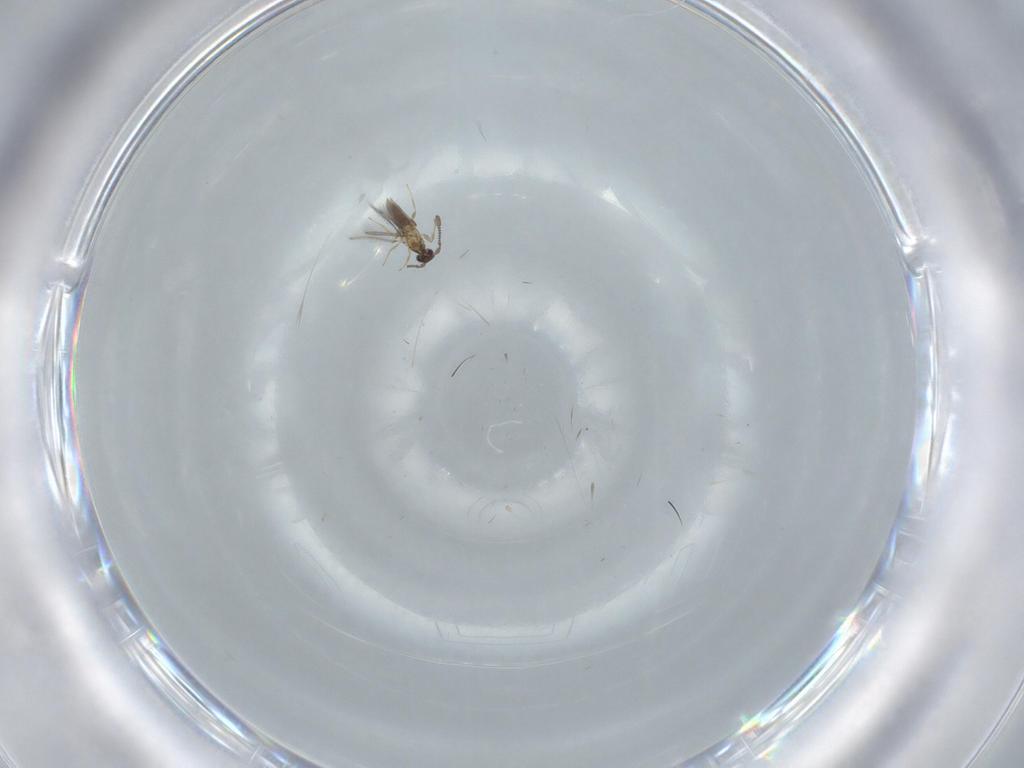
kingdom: Animalia
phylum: Arthropoda
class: Insecta
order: Hymenoptera
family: Mymaridae
